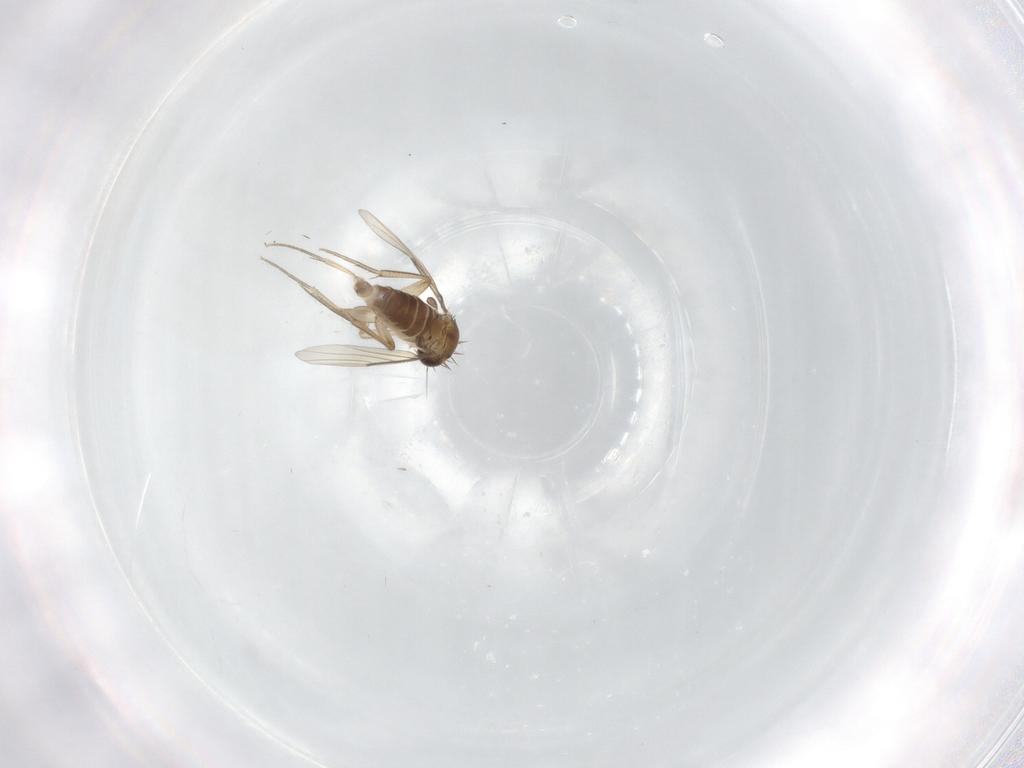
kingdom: Animalia
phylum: Arthropoda
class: Insecta
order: Diptera
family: Phoridae
